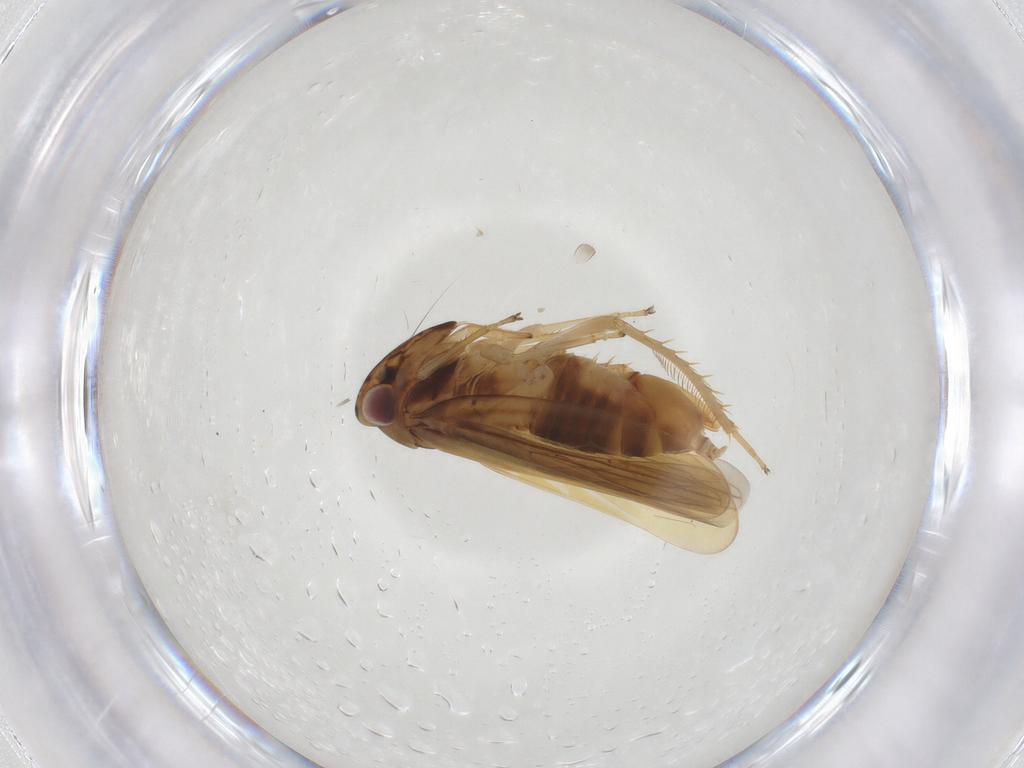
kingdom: Animalia
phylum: Arthropoda
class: Insecta
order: Hemiptera
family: Cicadellidae
